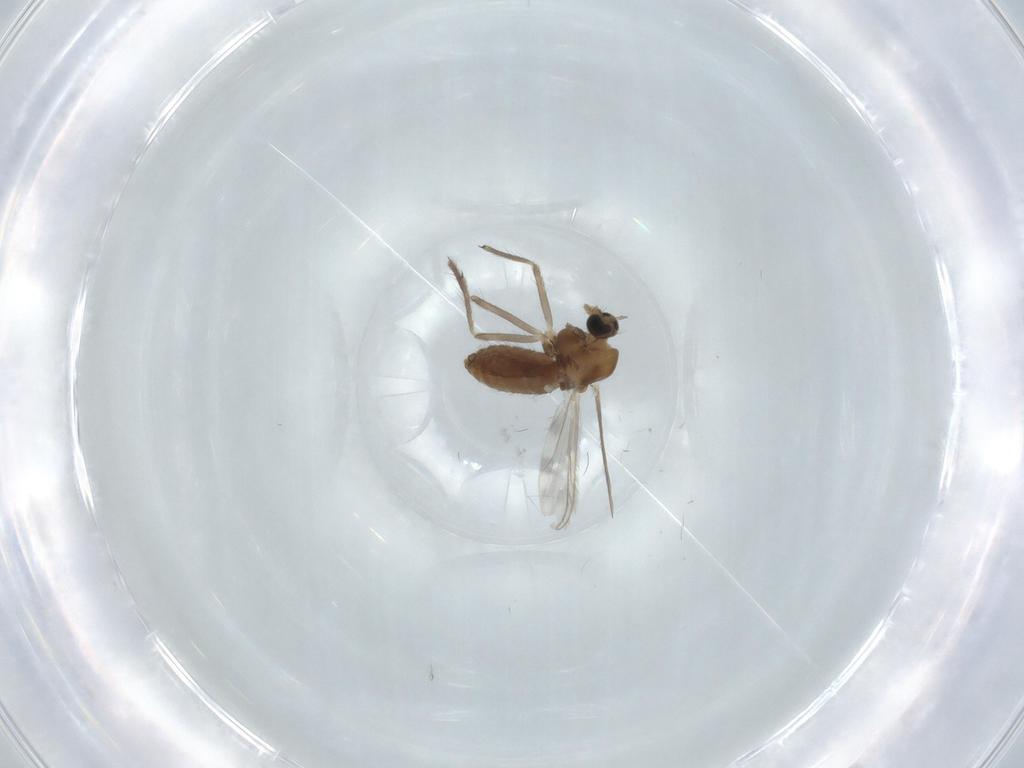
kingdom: Animalia
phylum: Arthropoda
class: Insecta
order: Diptera
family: Chironomidae
